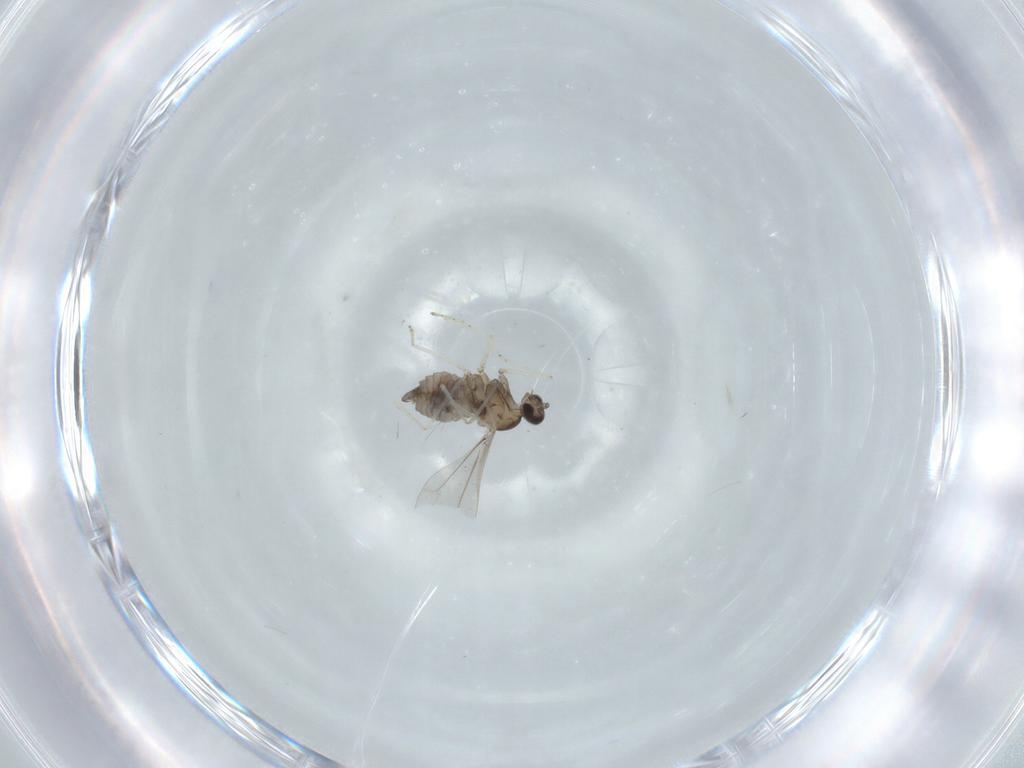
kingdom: Animalia
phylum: Arthropoda
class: Insecta
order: Diptera
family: Cecidomyiidae
